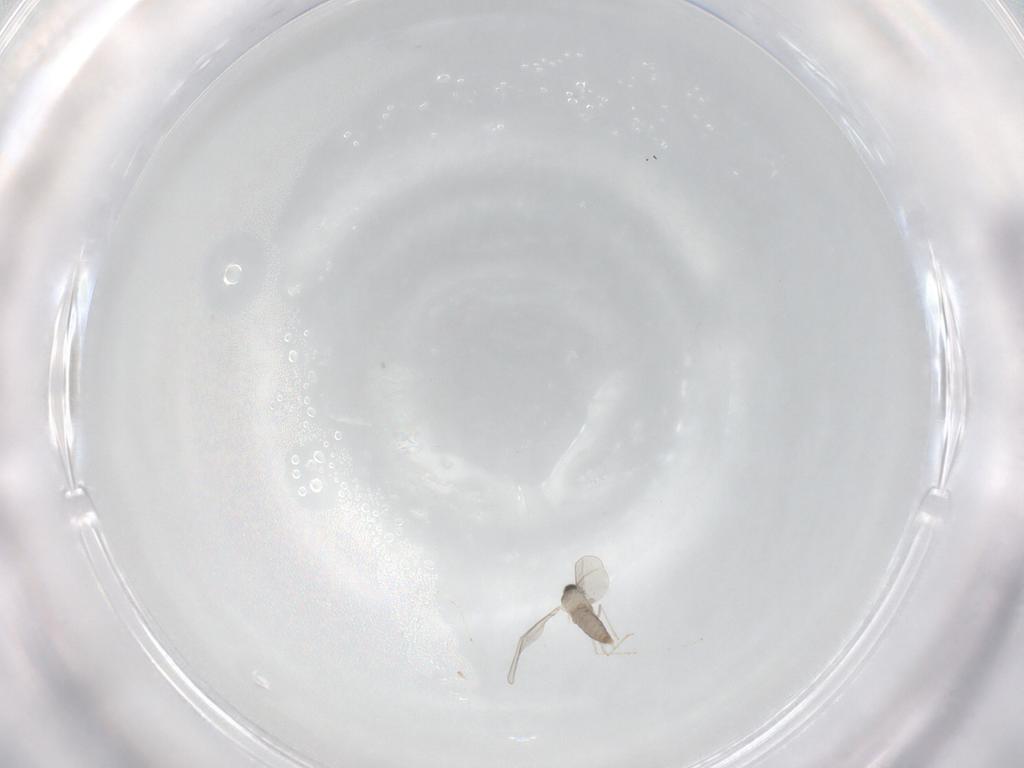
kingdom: Animalia
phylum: Arthropoda
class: Insecta
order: Diptera
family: Cecidomyiidae
